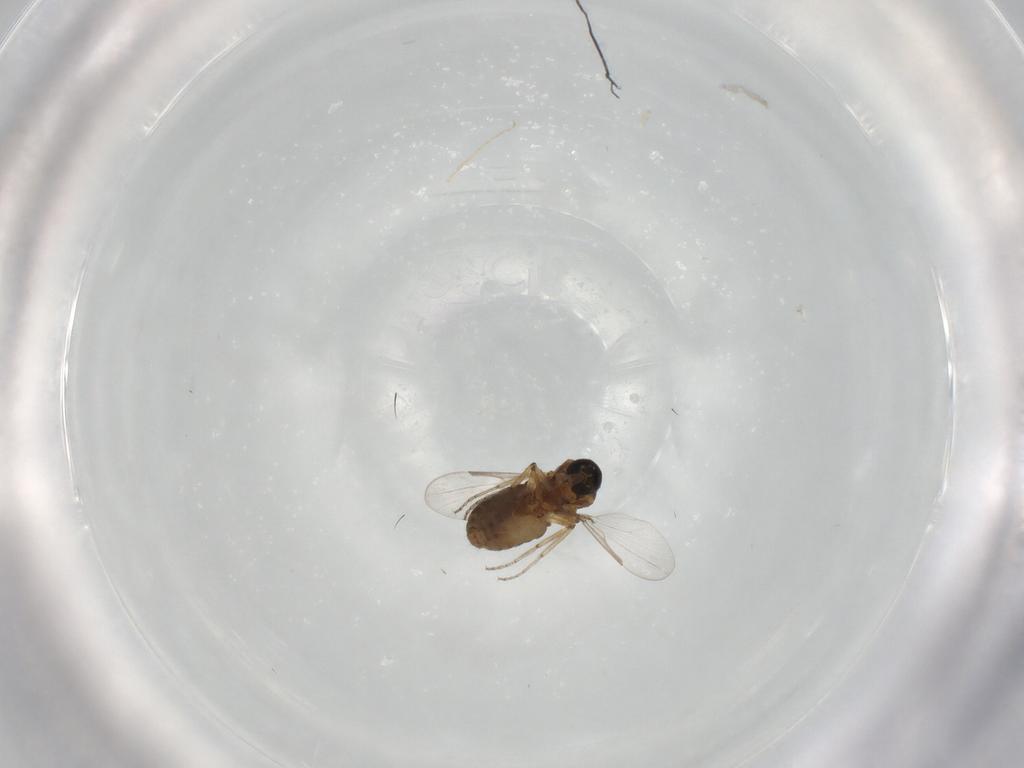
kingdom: Animalia
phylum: Arthropoda
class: Insecta
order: Diptera
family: Ceratopogonidae
